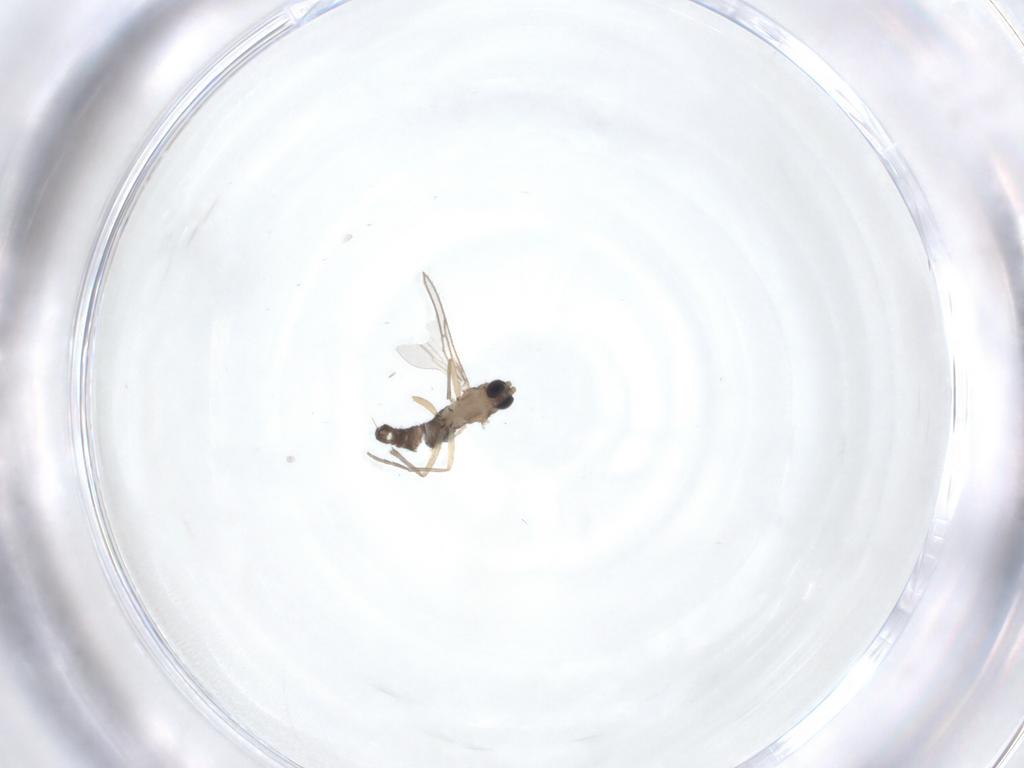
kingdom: Animalia
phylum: Arthropoda
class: Insecta
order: Diptera
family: Sciaridae
